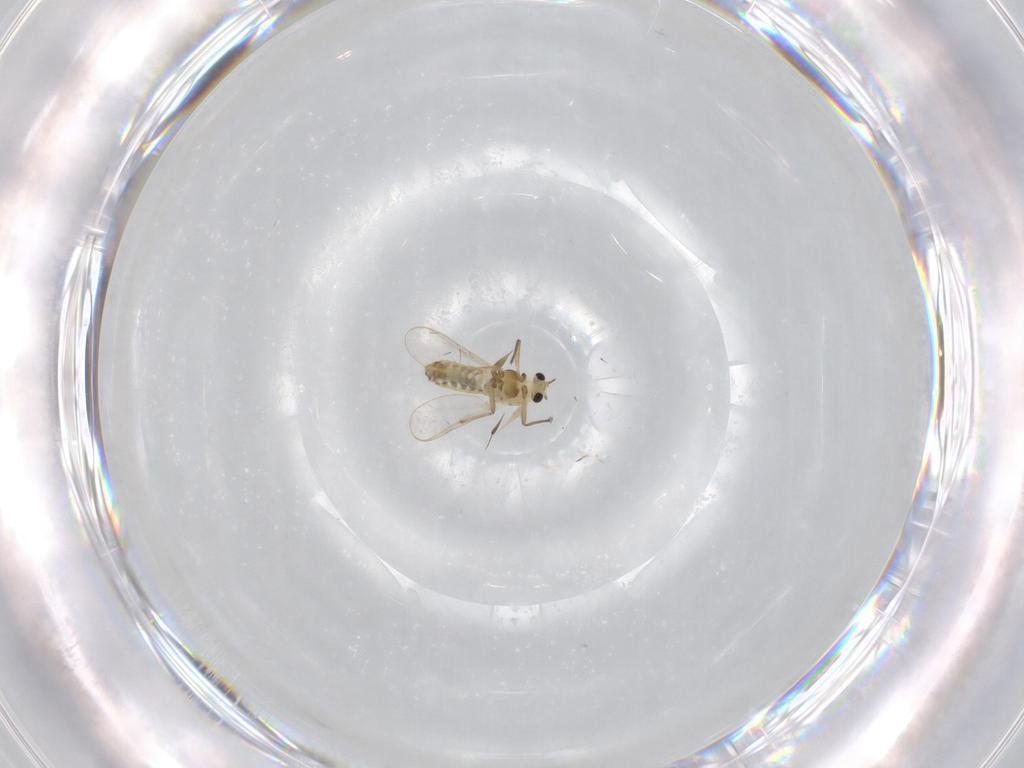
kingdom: Animalia
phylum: Arthropoda
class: Insecta
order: Diptera
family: Chironomidae
